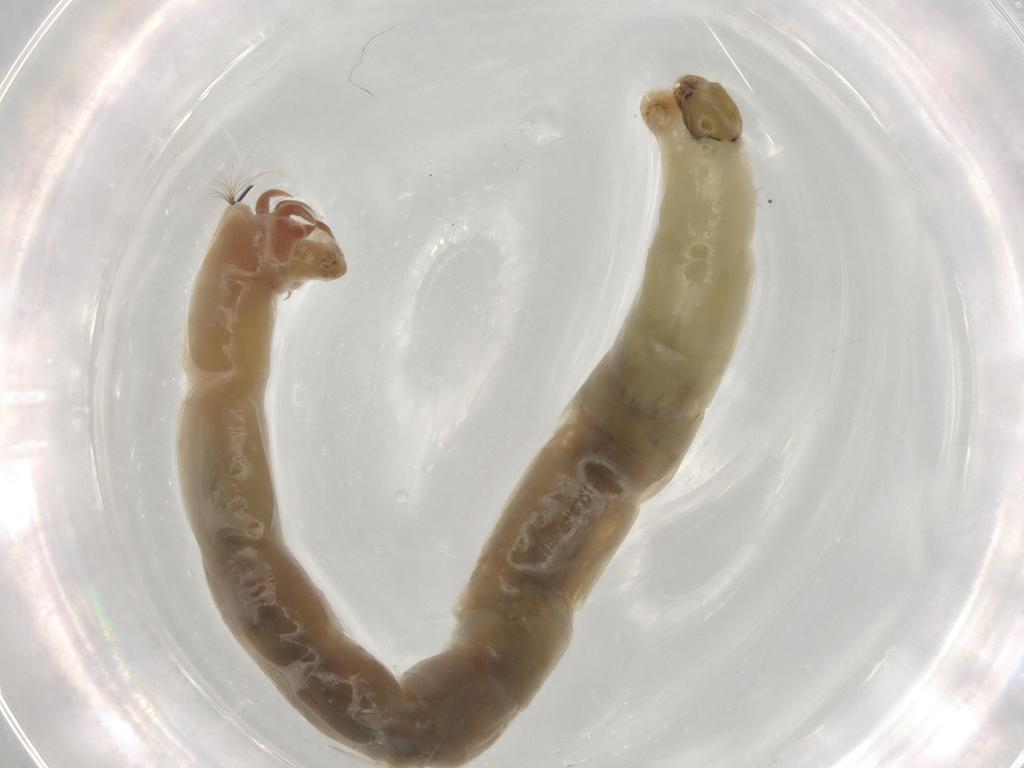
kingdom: Animalia
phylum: Arthropoda
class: Insecta
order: Diptera
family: Chironomidae
